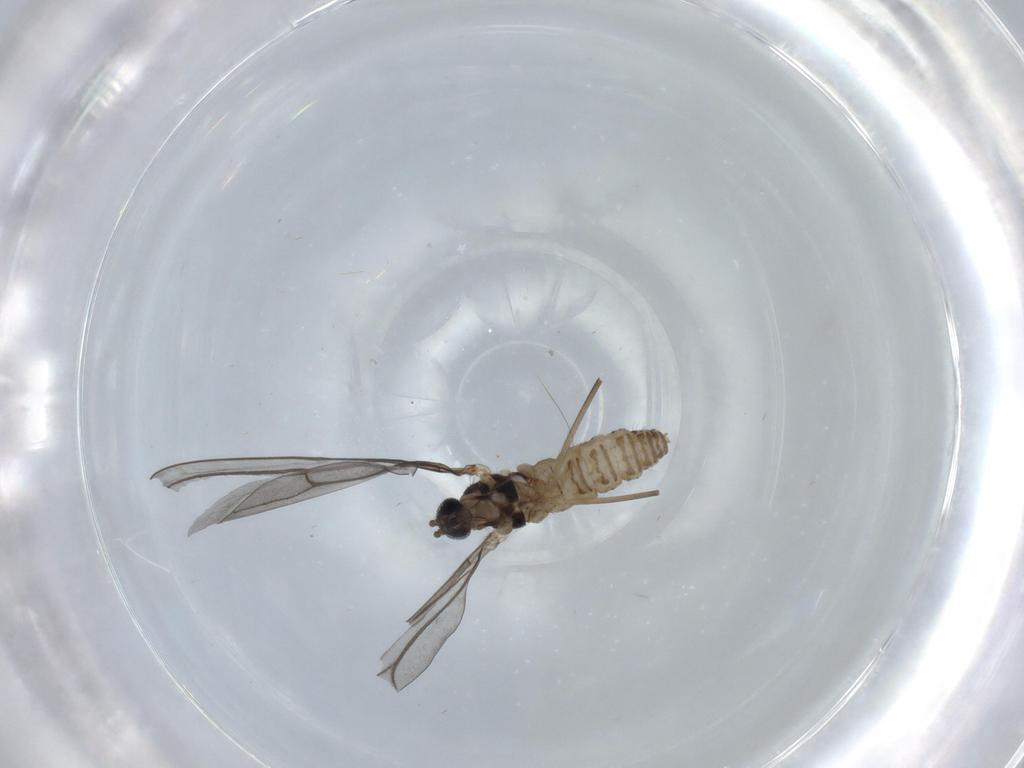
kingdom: Animalia
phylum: Arthropoda
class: Insecta
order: Diptera
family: Cecidomyiidae
